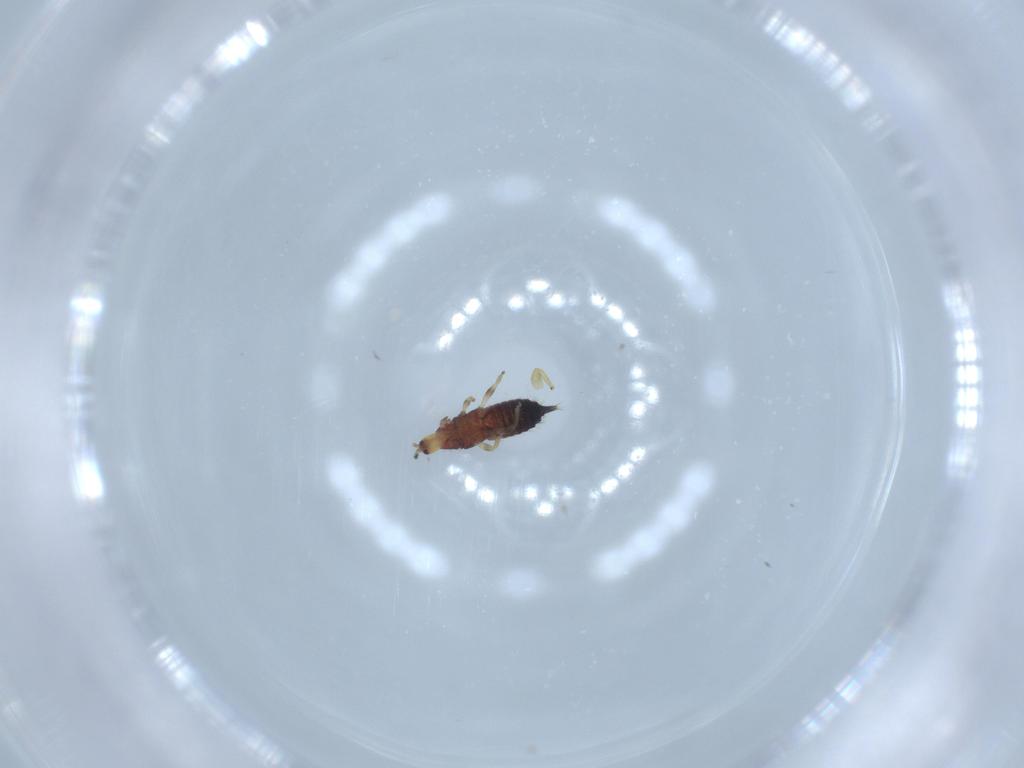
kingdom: Animalia
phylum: Arthropoda
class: Insecta
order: Thysanoptera
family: Phlaeothripidae
